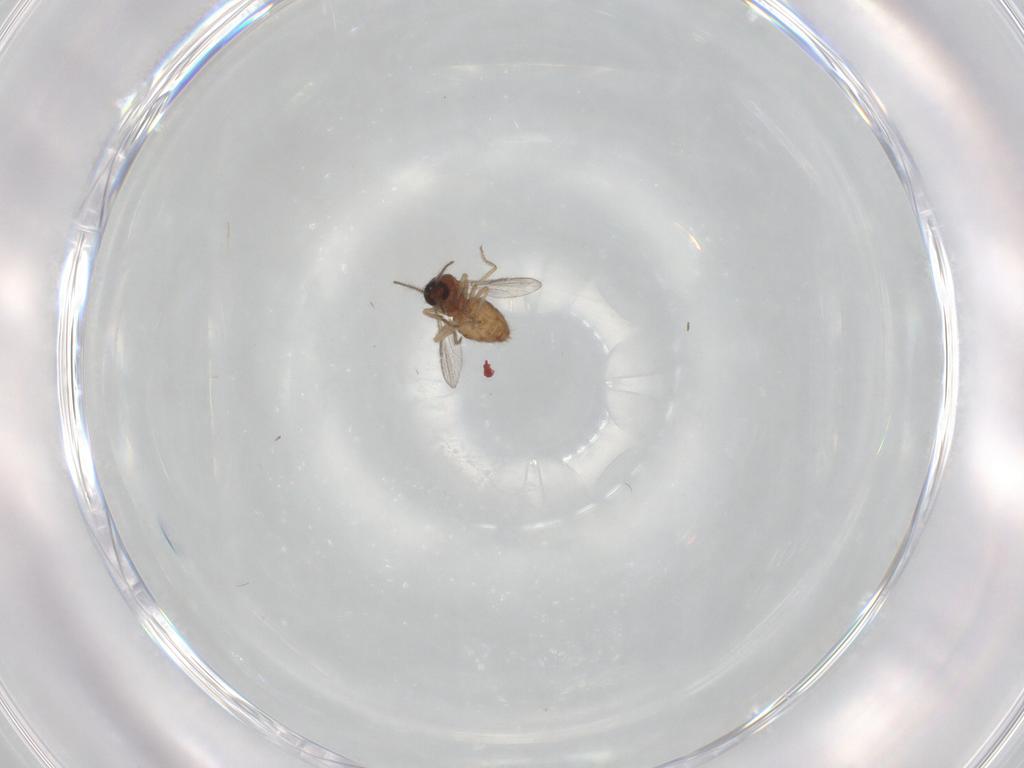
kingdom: Animalia
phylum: Arthropoda
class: Insecta
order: Diptera
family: Ceratopogonidae
